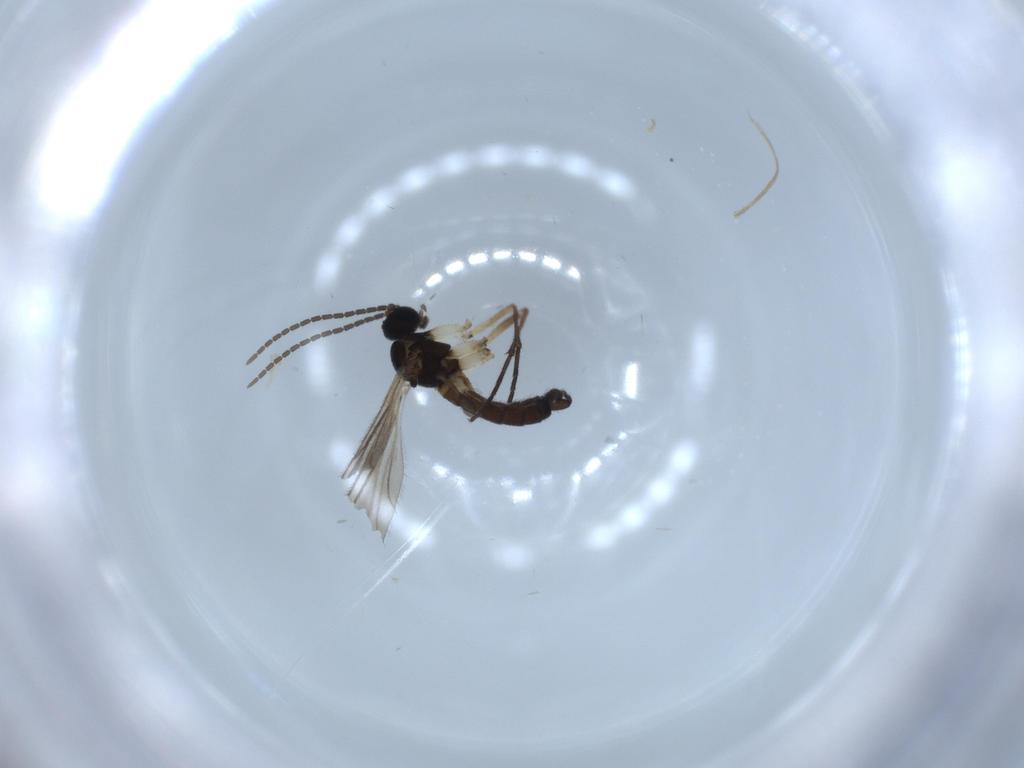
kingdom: Animalia
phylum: Arthropoda
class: Insecta
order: Diptera
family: Sciaridae
